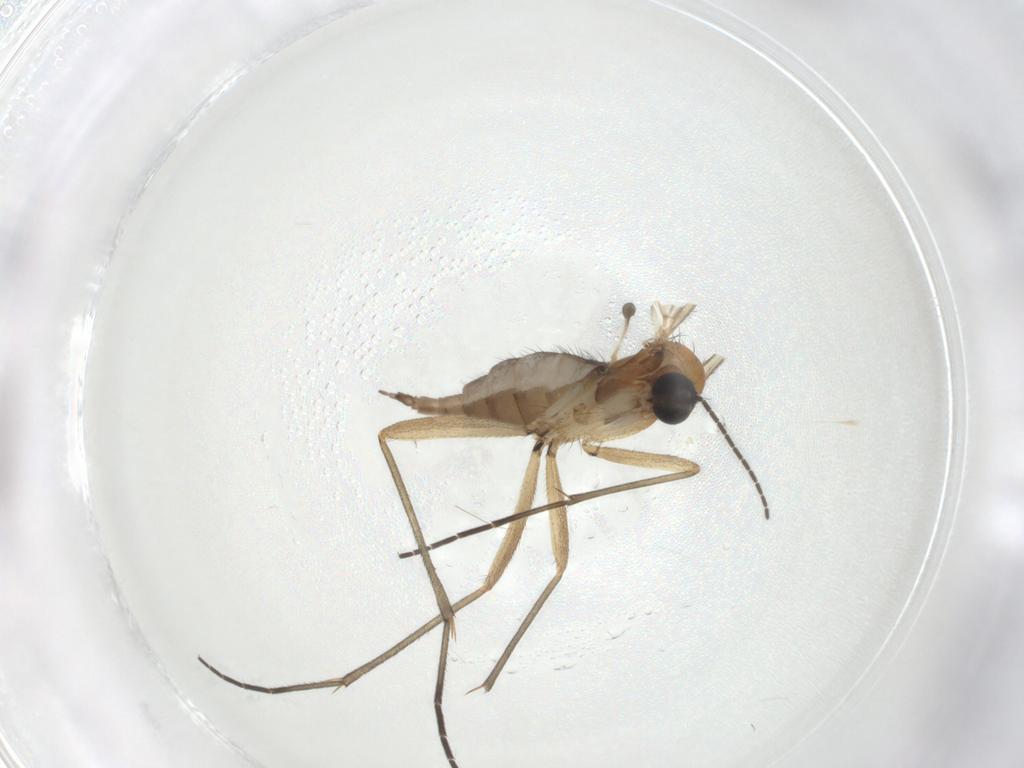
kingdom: Animalia
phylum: Arthropoda
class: Insecta
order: Diptera
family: Sciaridae
